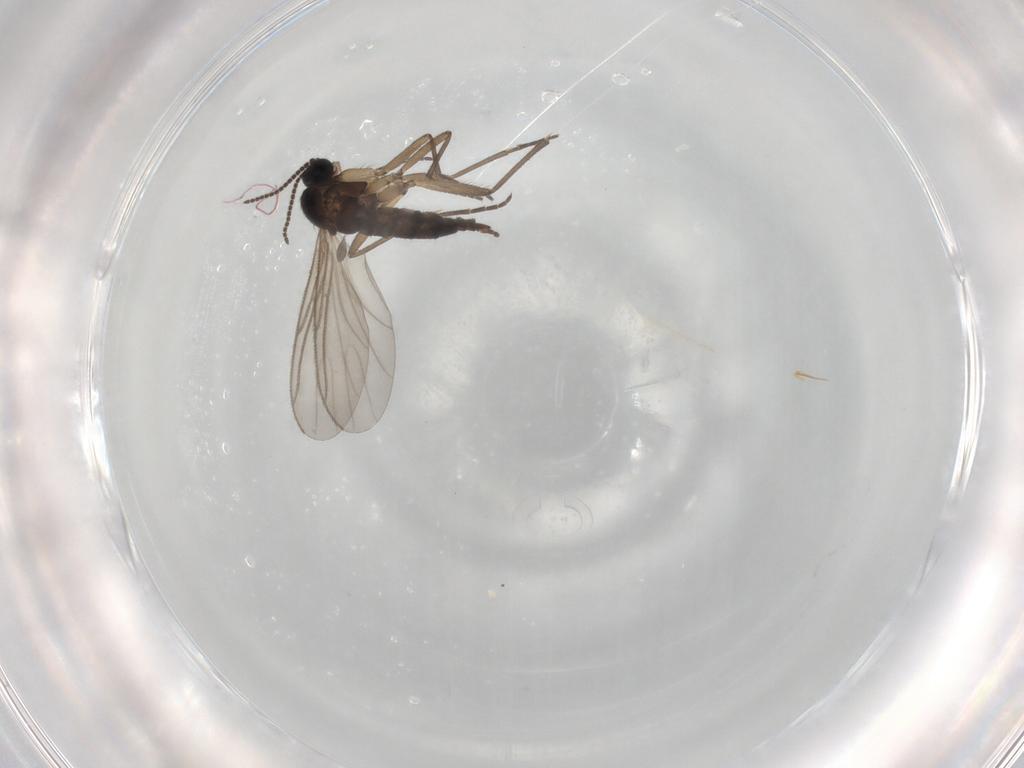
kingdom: Animalia
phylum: Arthropoda
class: Insecta
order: Diptera
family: Sciaridae
